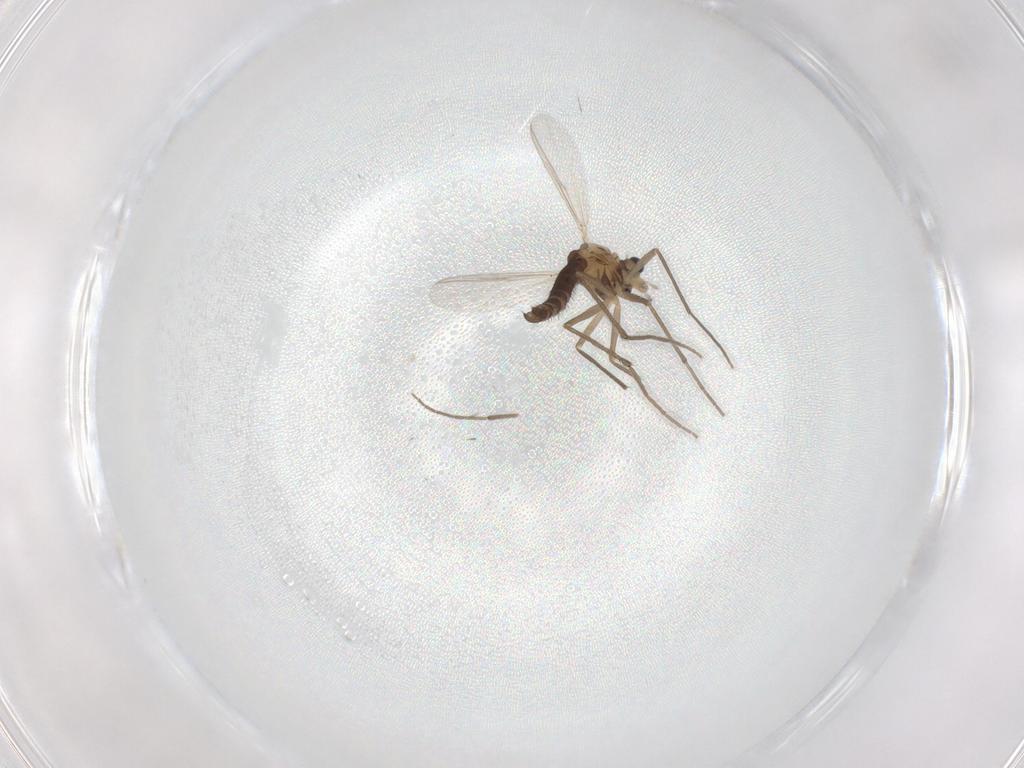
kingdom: Animalia
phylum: Arthropoda
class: Insecta
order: Diptera
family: Chironomidae
